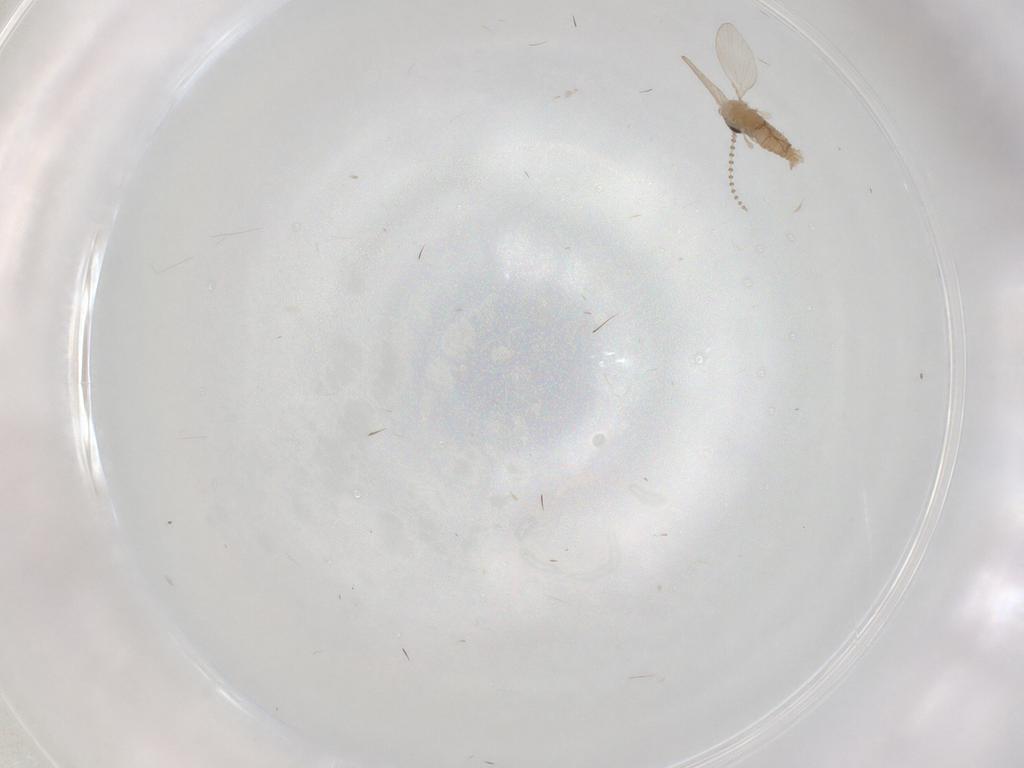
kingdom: Animalia
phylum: Arthropoda
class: Insecta
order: Diptera
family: Psychodidae
